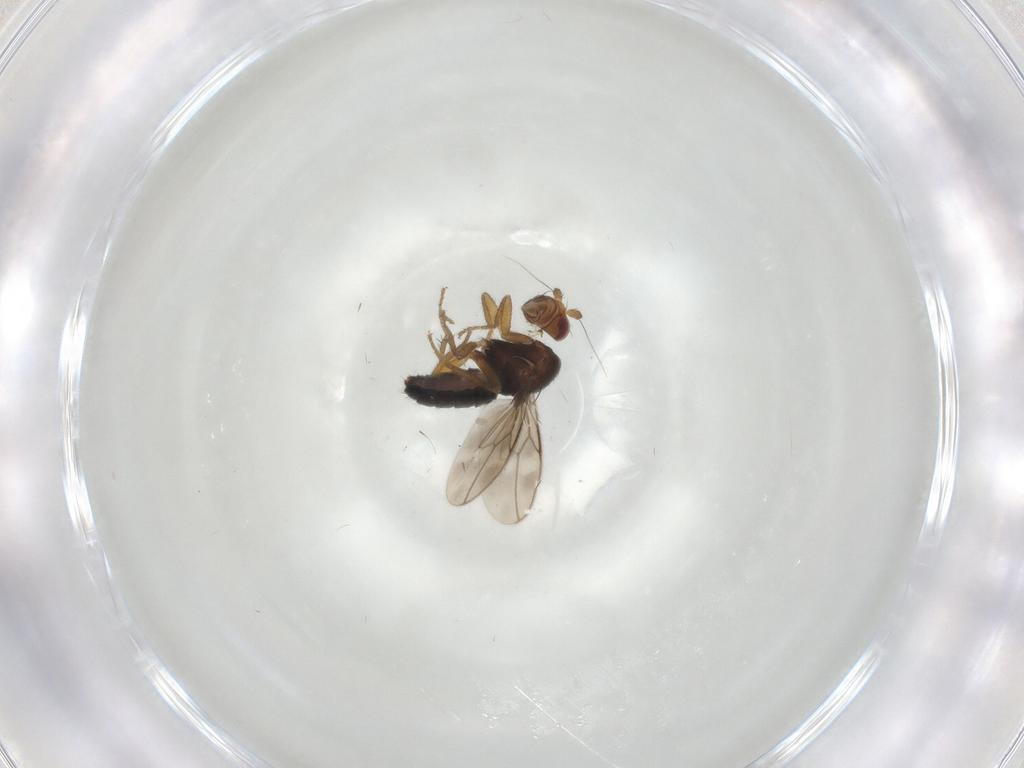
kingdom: Animalia
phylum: Arthropoda
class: Insecta
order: Diptera
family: Sphaeroceridae
